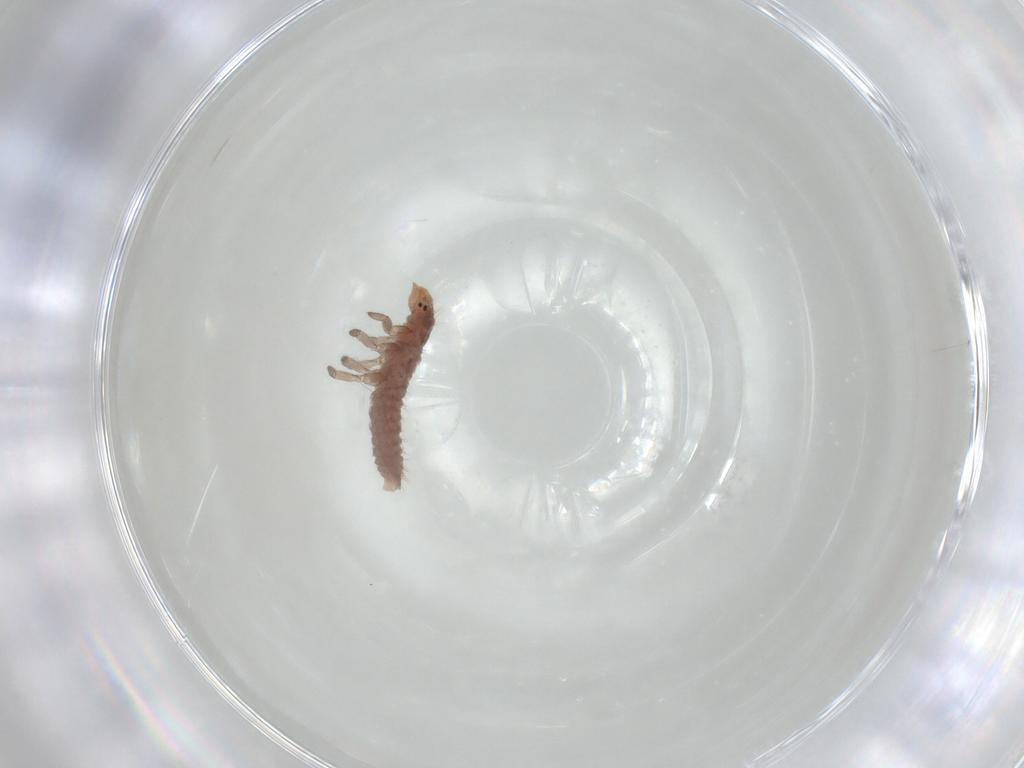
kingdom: Animalia
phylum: Arthropoda
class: Insecta
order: Coleoptera
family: Coccinellidae
